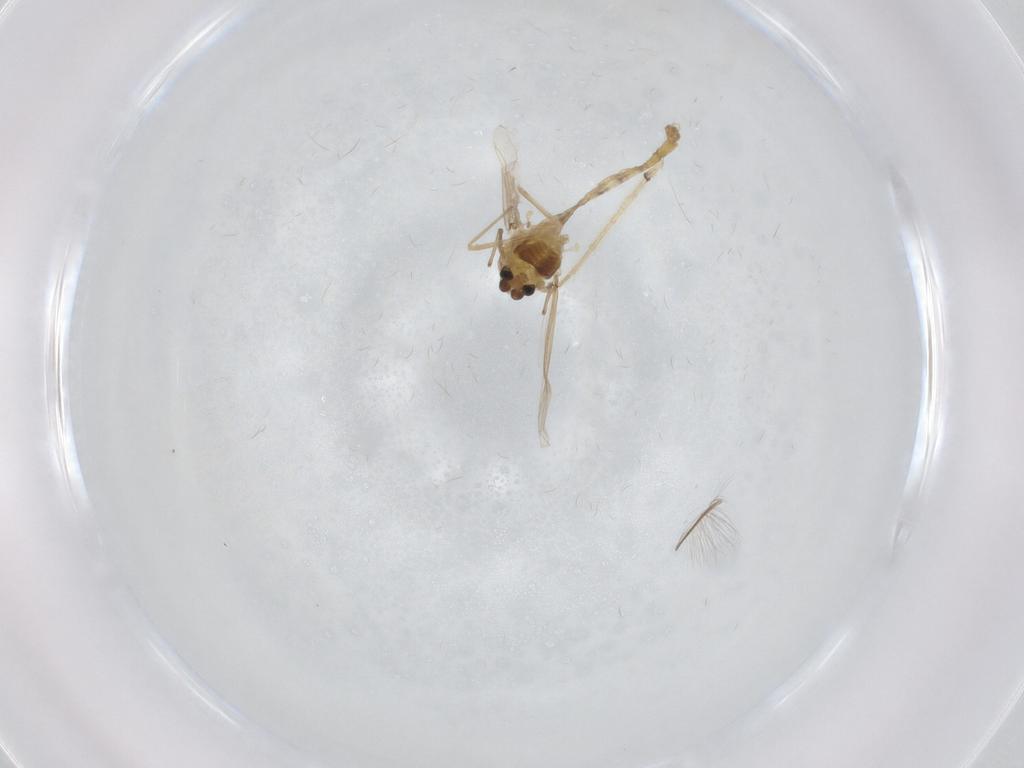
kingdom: Animalia
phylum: Arthropoda
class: Insecta
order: Diptera
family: Chironomidae
